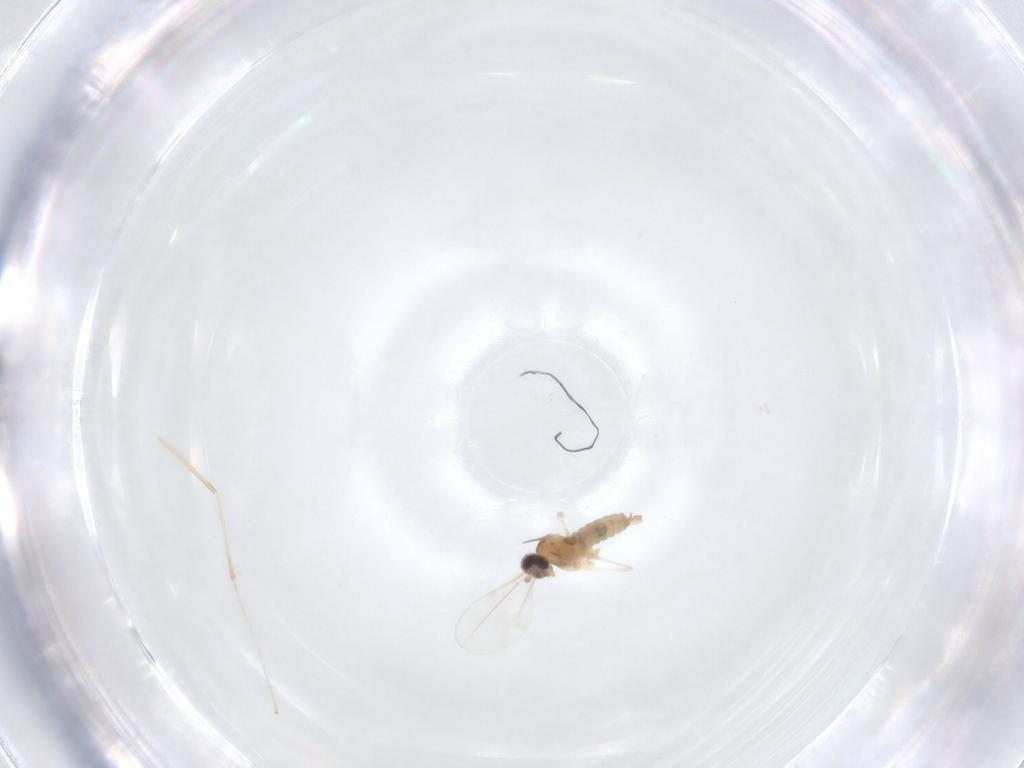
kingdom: Animalia
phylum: Arthropoda
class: Insecta
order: Diptera
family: Cecidomyiidae
